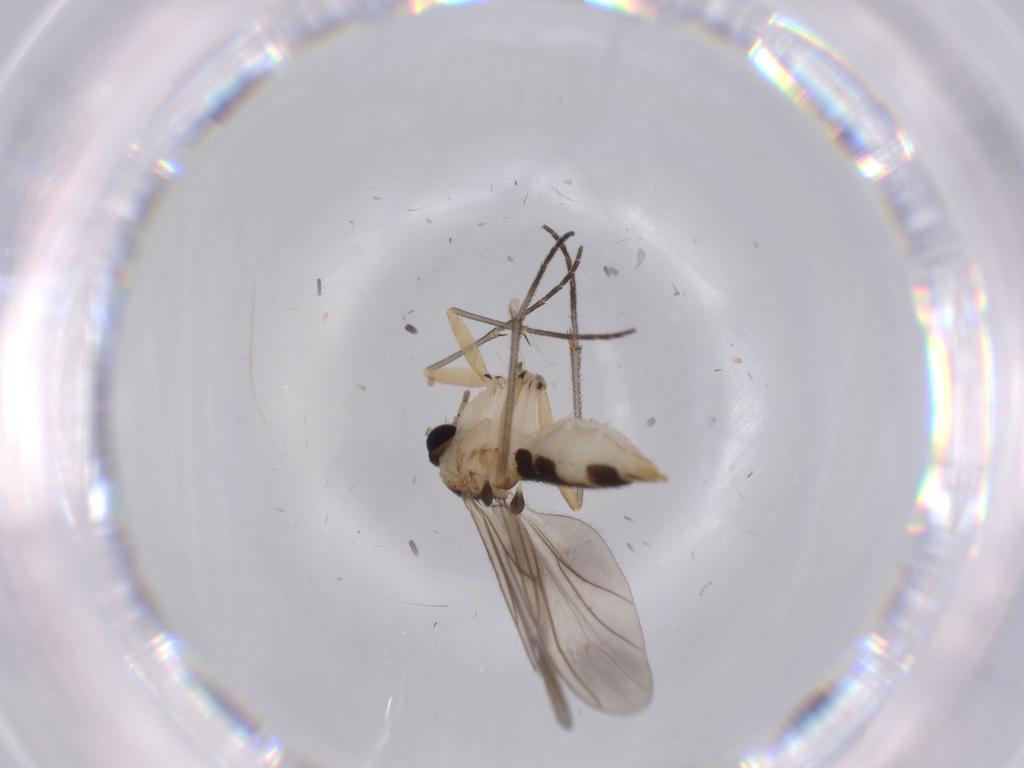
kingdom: Animalia
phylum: Arthropoda
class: Insecta
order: Diptera
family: Sciaridae
